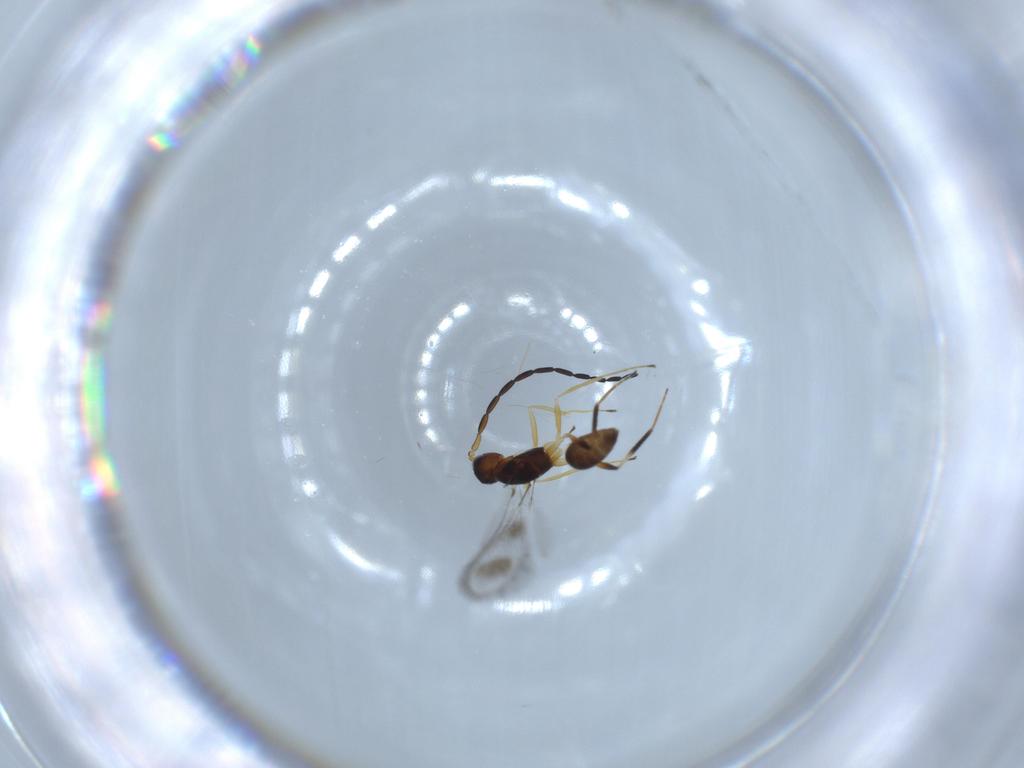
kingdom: Animalia
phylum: Arthropoda
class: Insecta
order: Hymenoptera
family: Mymaridae
